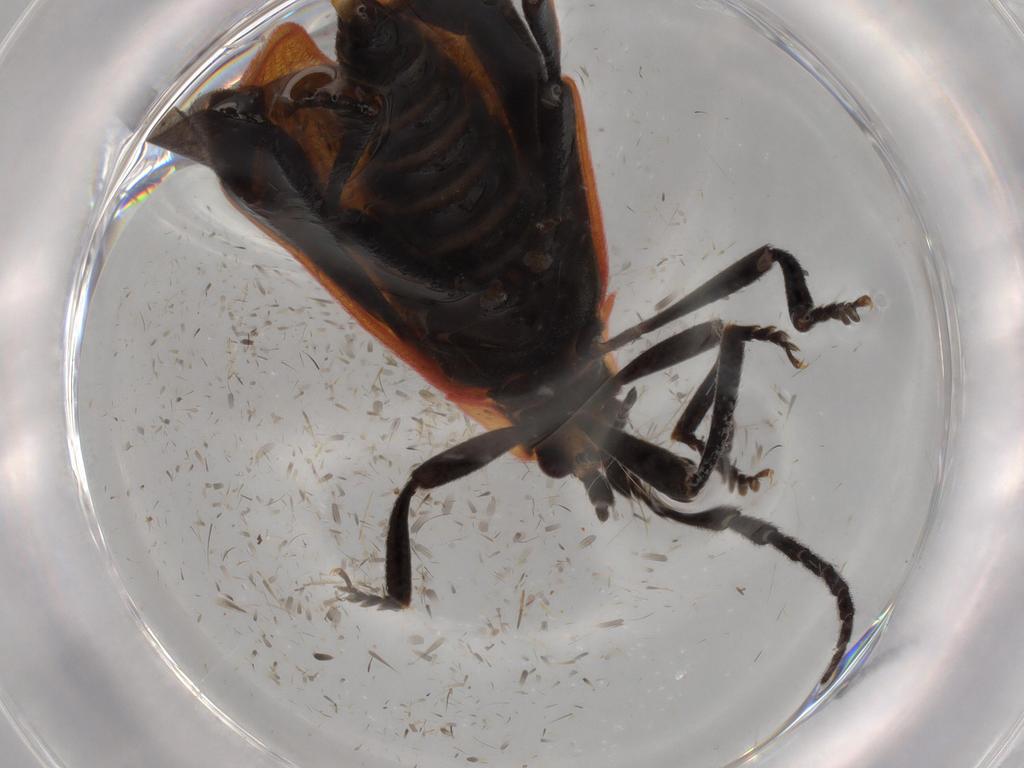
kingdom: Animalia
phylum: Arthropoda
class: Insecta
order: Coleoptera
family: Lycidae
